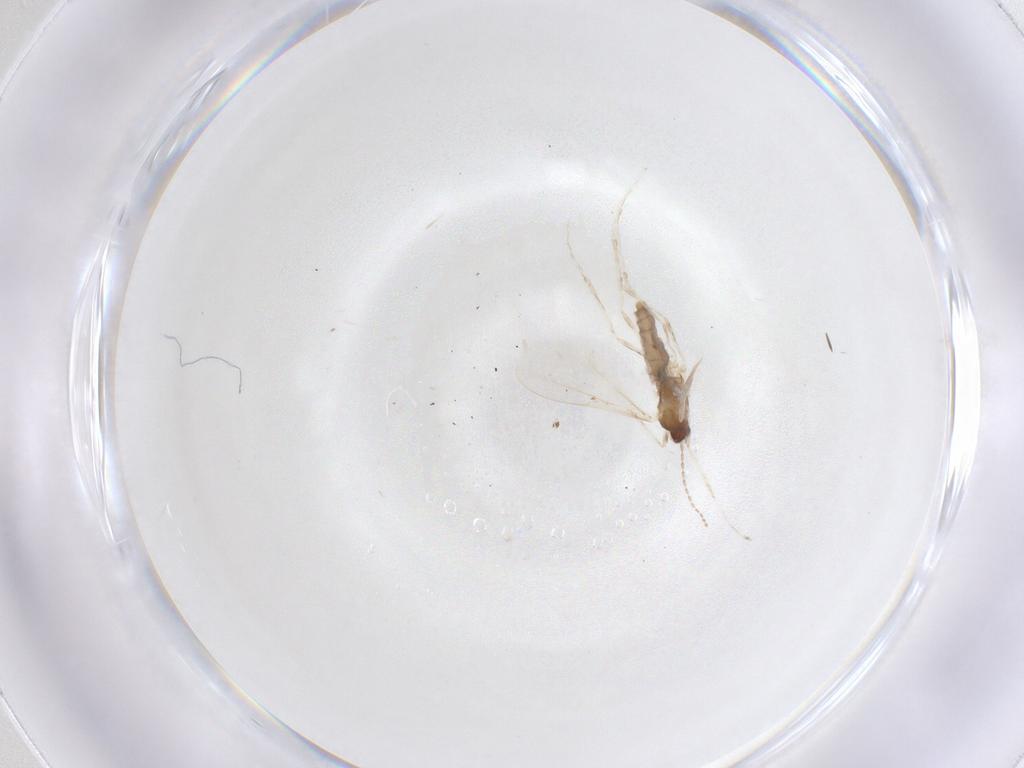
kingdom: Animalia
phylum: Arthropoda
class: Insecta
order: Diptera
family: Cecidomyiidae
